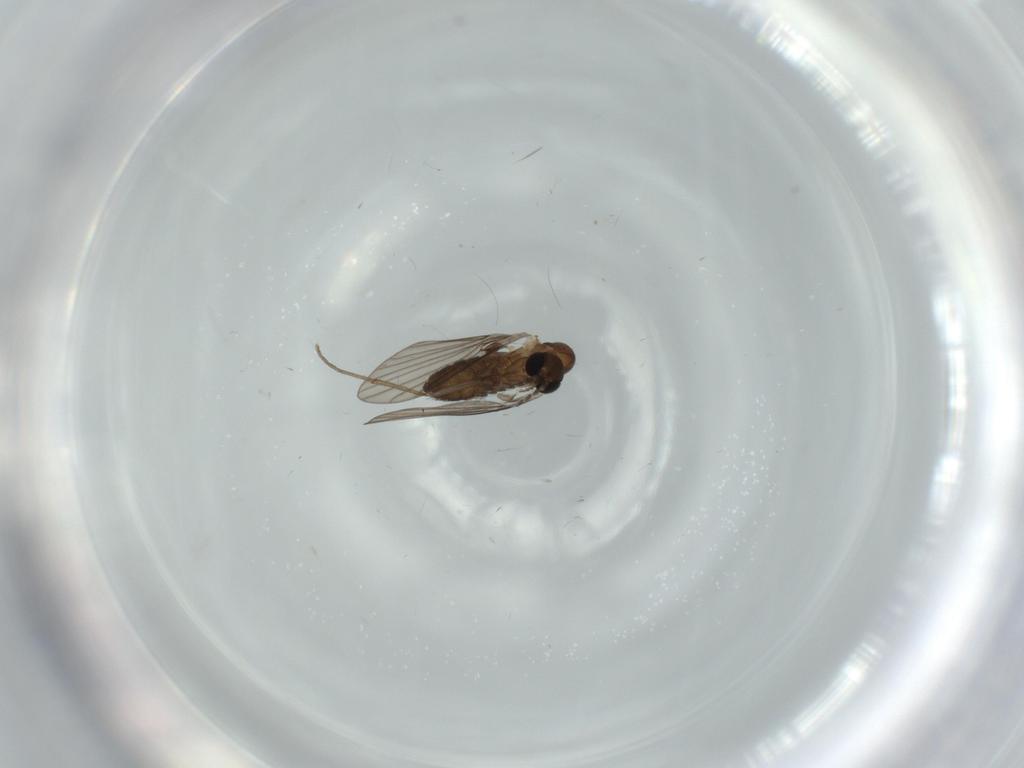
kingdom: Animalia
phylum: Arthropoda
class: Insecta
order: Diptera
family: Psychodidae
